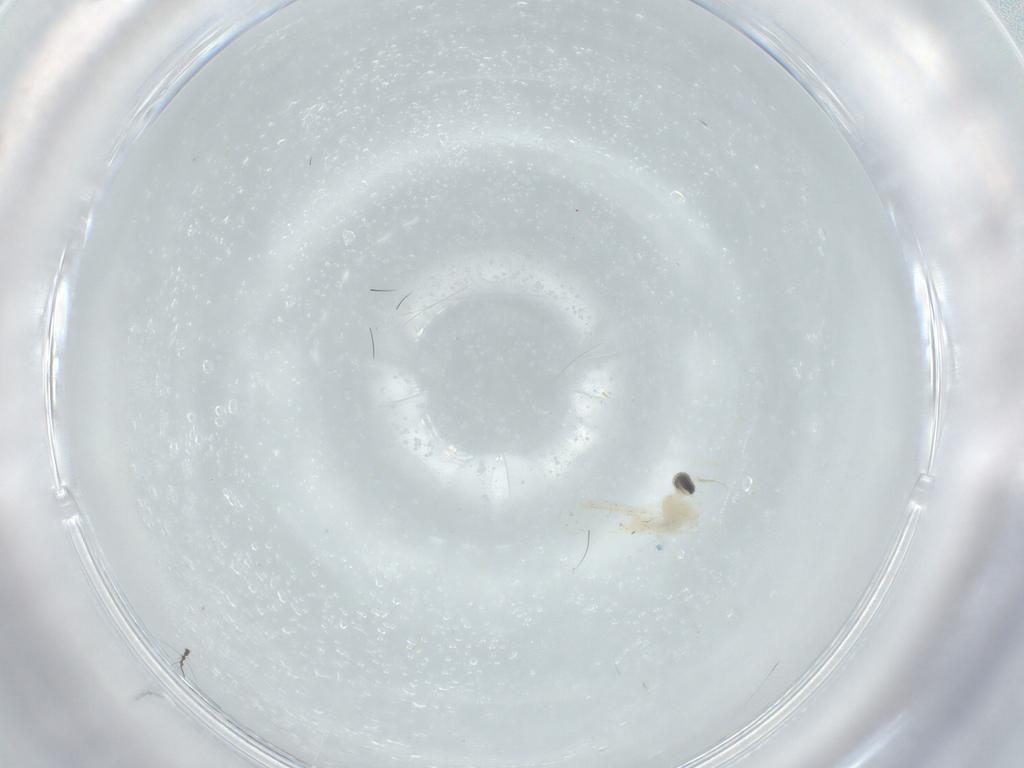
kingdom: Animalia
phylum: Arthropoda
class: Insecta
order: Diptera
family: Cecidomyiidae
